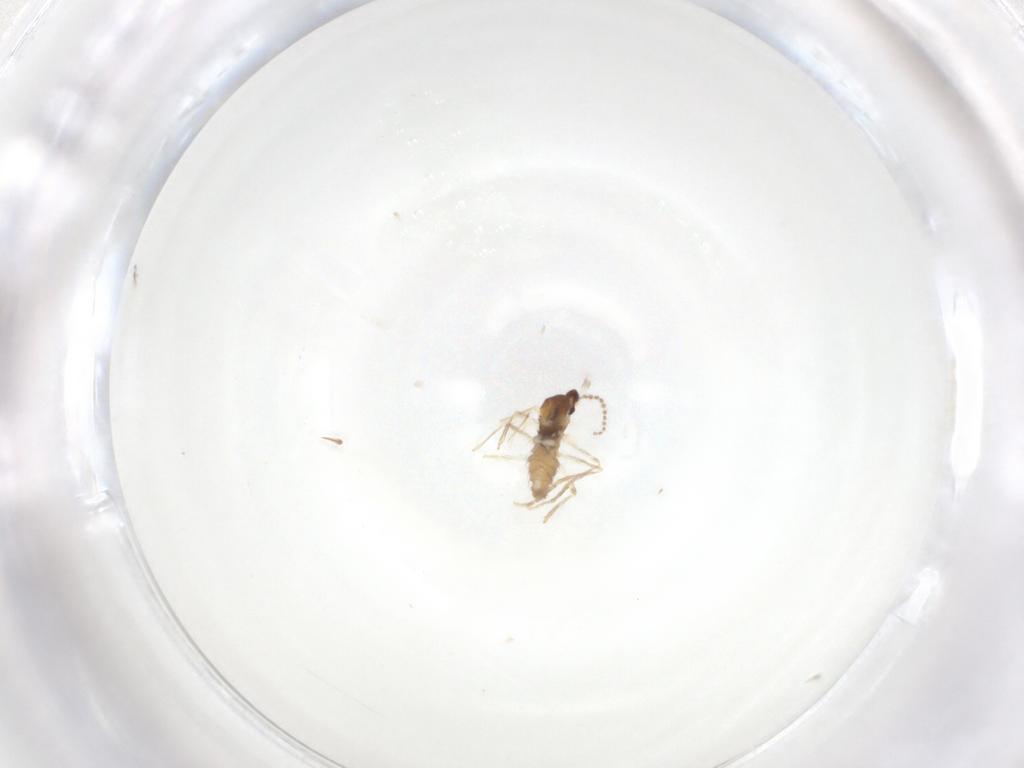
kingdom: Animalia
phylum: Arthropoda
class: Insecta
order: Diptera
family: Cecidomyiidae
